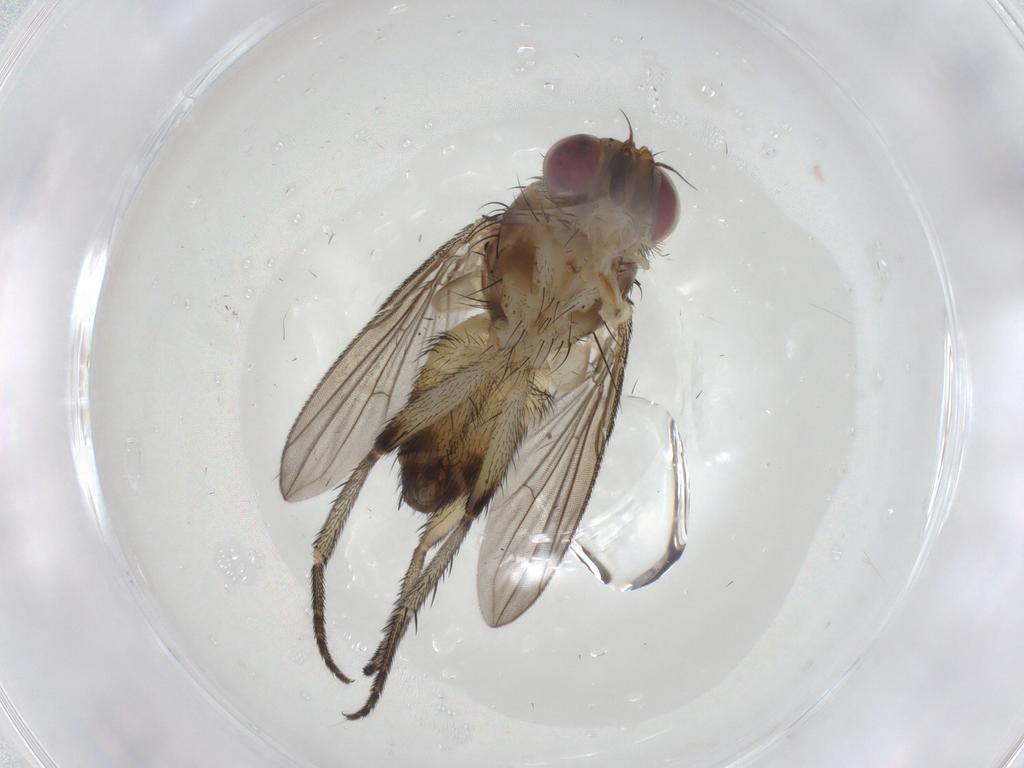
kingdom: Animalia
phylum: Arthropoda
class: Insecta
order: Diptera
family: Tachinidae
